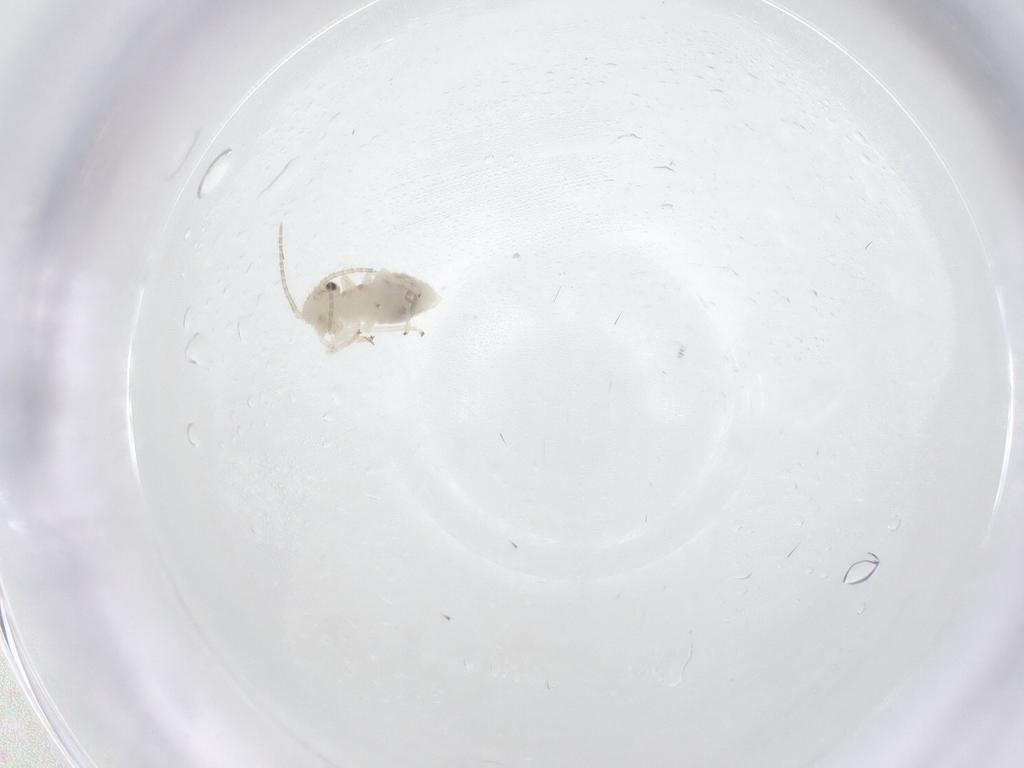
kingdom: Animalia
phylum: Arthropoda
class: Insecta
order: Psocodea
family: Amphipsocidae
